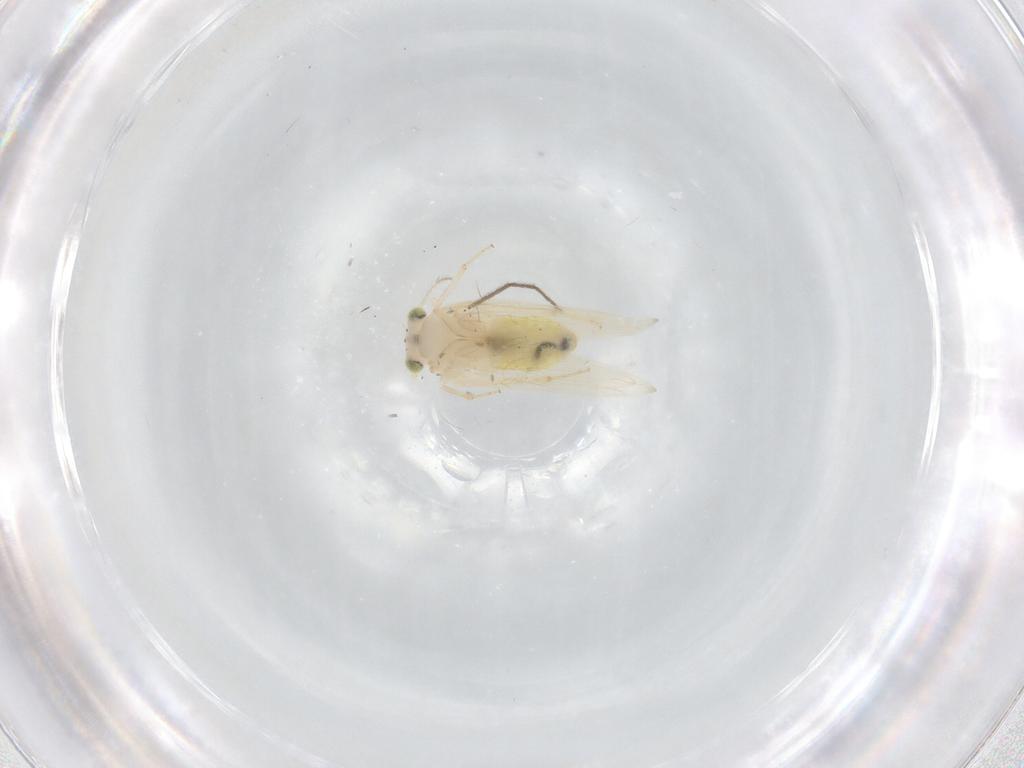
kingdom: Animalia
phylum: Arthropoda
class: Insecta
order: Psocodea
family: Lepidopsocidae
